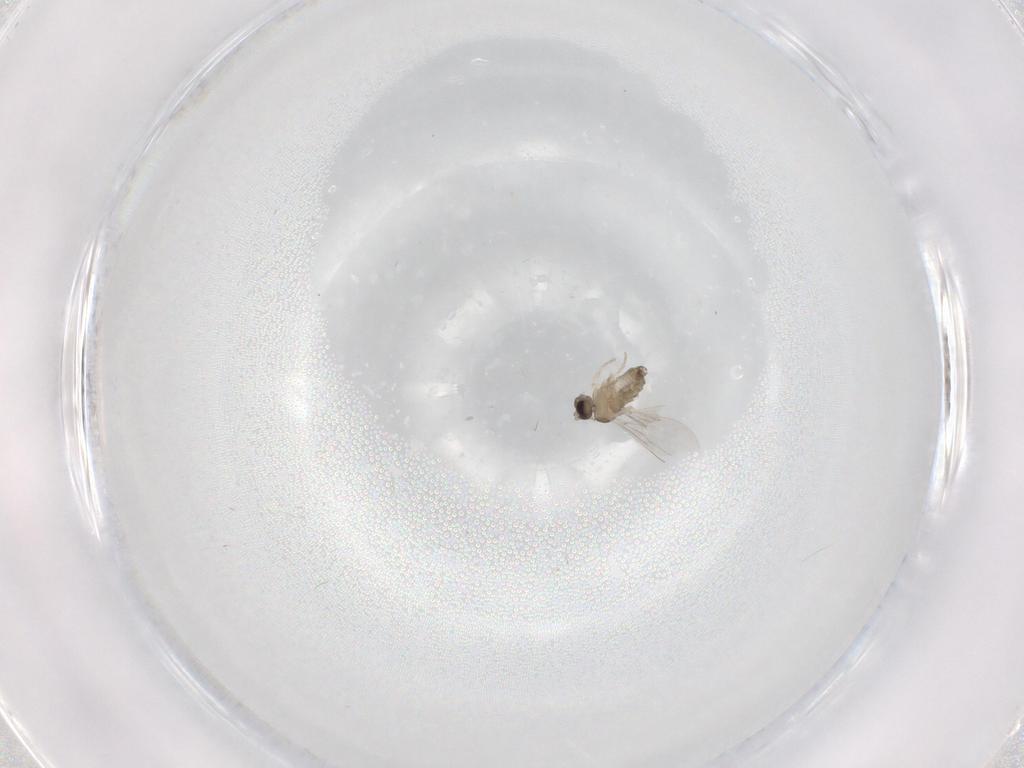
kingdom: Animalia
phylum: Arthropoda
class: Insecta
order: Diptera
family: Cecidomyiidae
